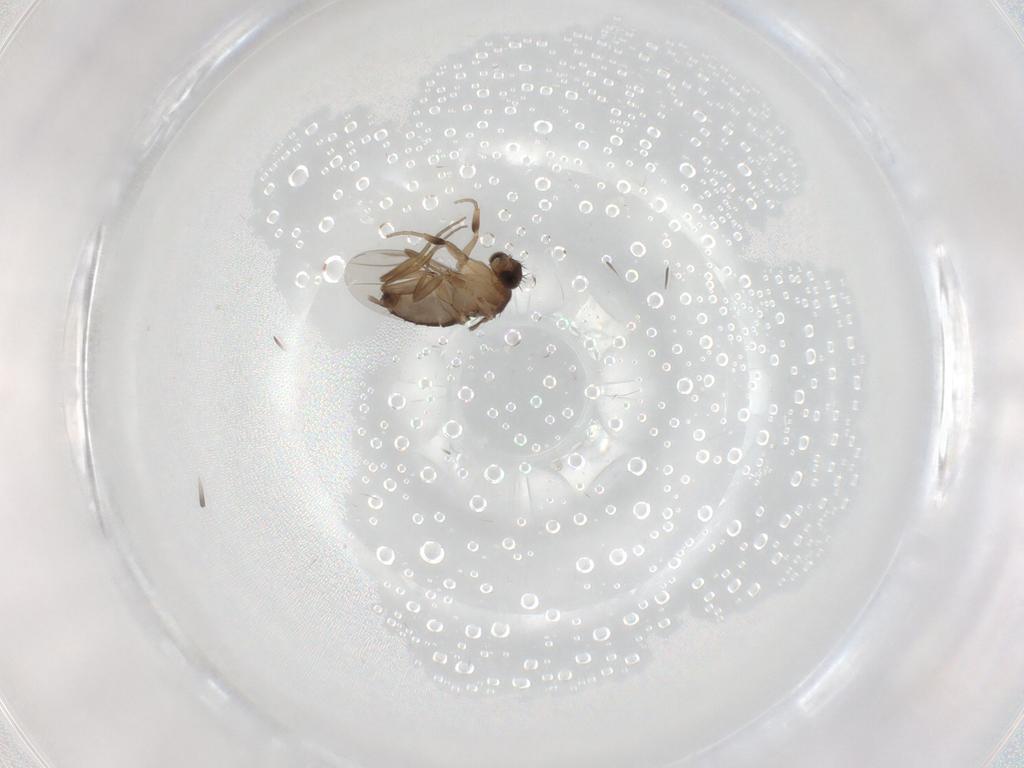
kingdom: Animalia
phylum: Arthropoda
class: Insecta
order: Diptera
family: Phoridae
